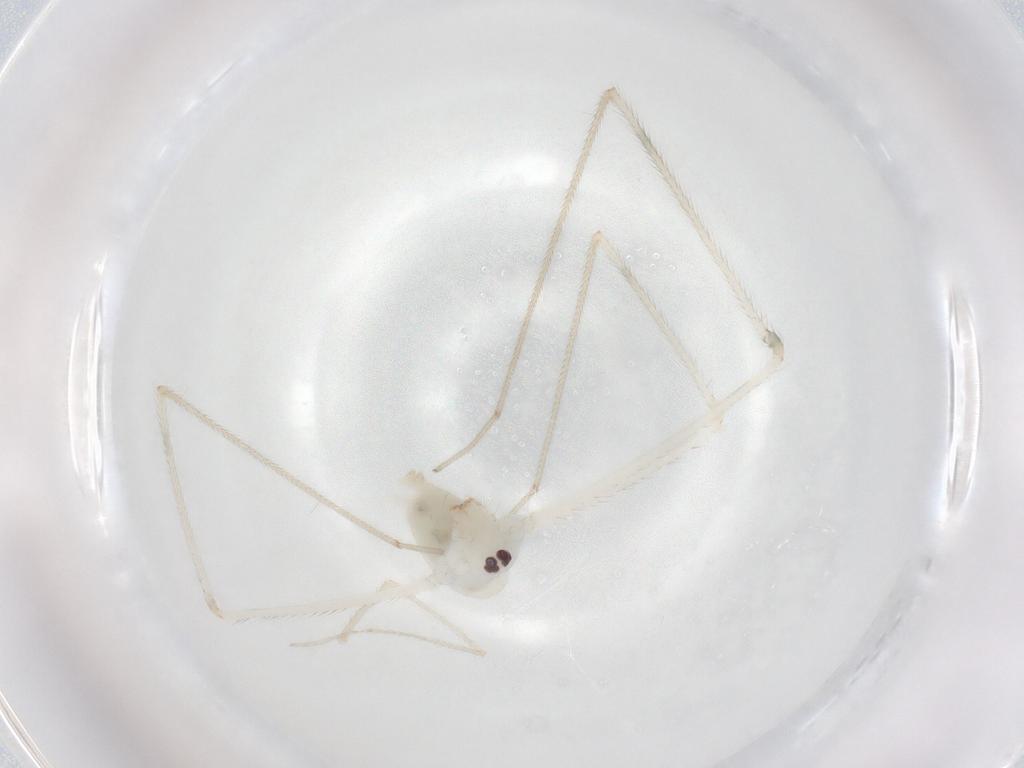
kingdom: Animalia
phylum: Arthropoda
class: Arachnida
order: Araneae
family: Pholcidae
